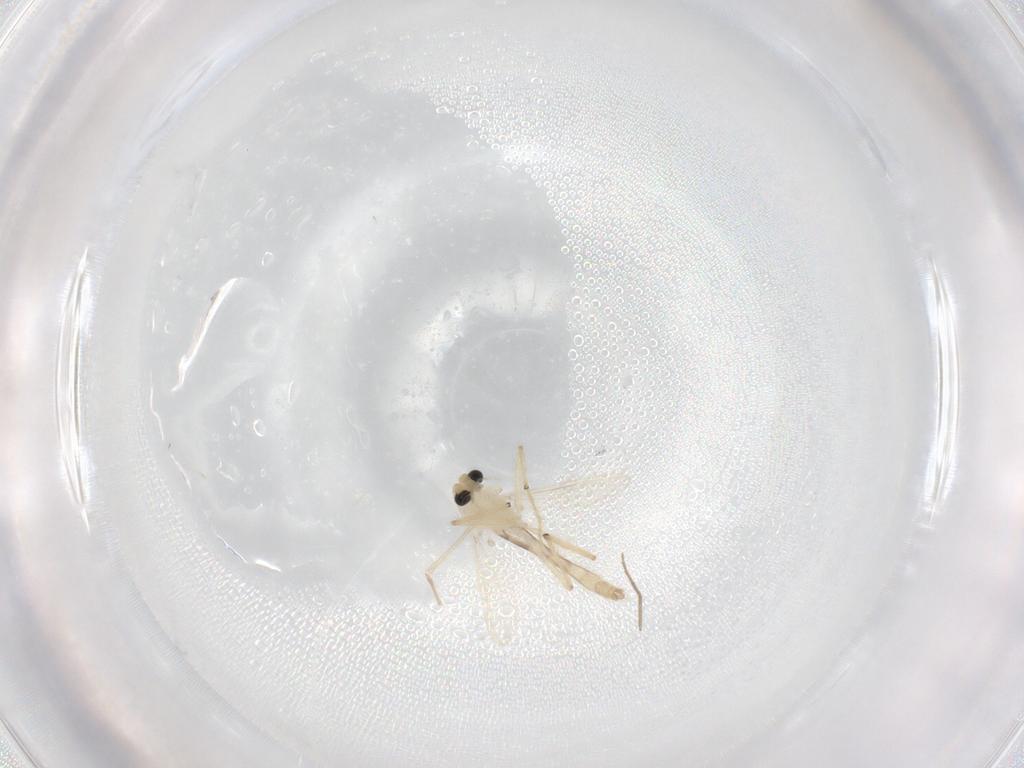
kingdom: Animalia
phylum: Arthropoda
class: Insecta
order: Diptera
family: Chironomidae
